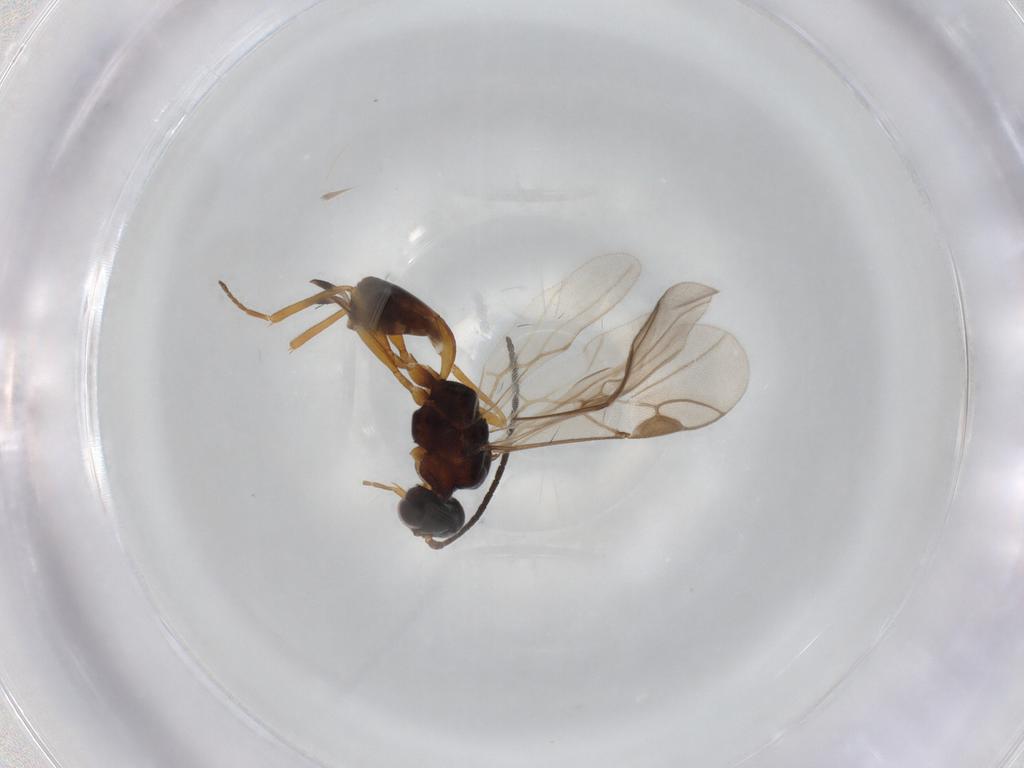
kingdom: Animalia
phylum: Arthropoda
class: Insecta
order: Hymenoptera
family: Braconidae
